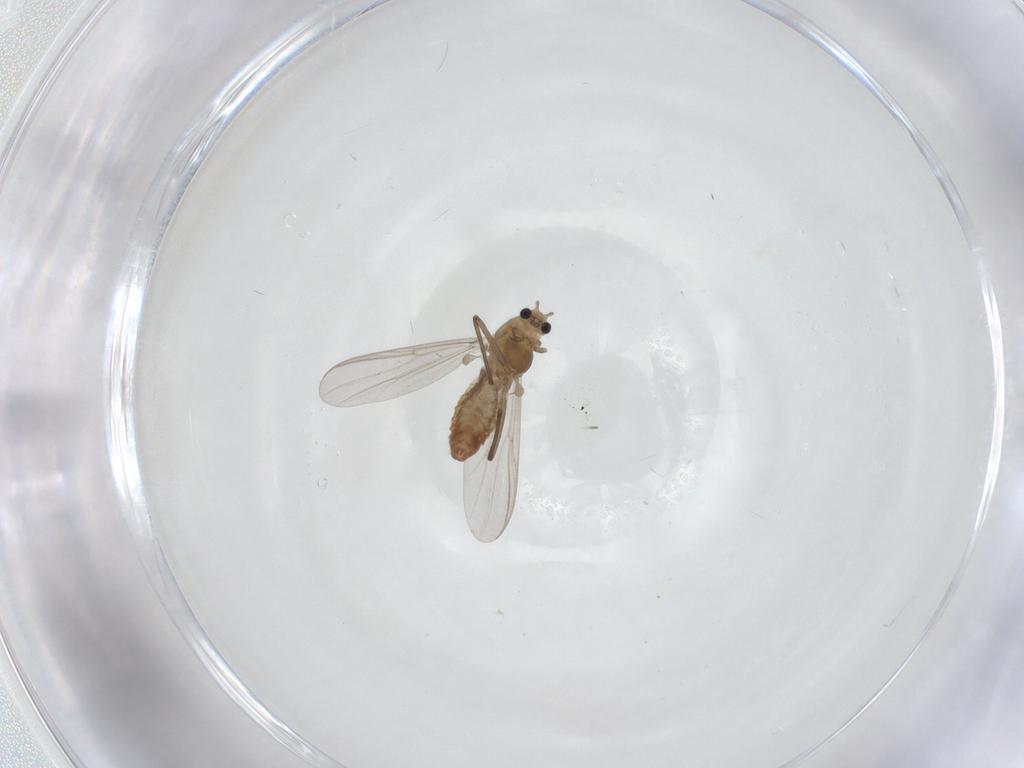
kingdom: Animalia
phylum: Arthropoda
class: Insecta
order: Diptera
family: Chironomidae
